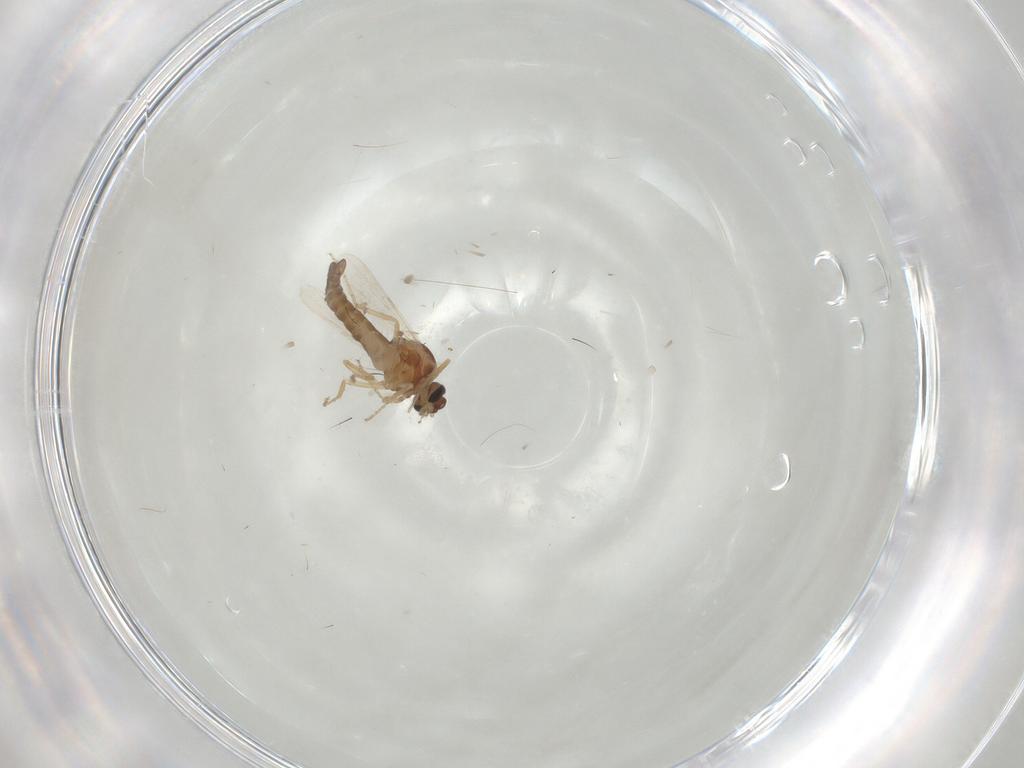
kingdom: Animalia
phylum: Arthropoda
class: Insecta
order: Diptera
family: Ceratopogonidae
